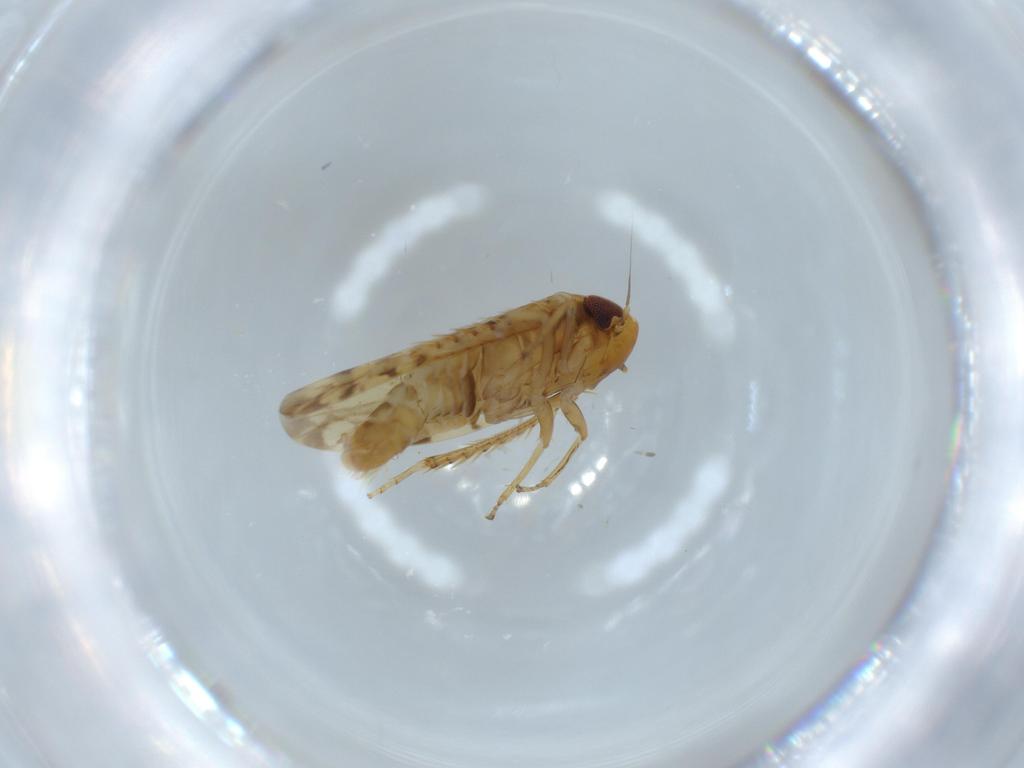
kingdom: Animalia
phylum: Arthropoda
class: Insecta
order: Hemiptera
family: Cicadellidae
